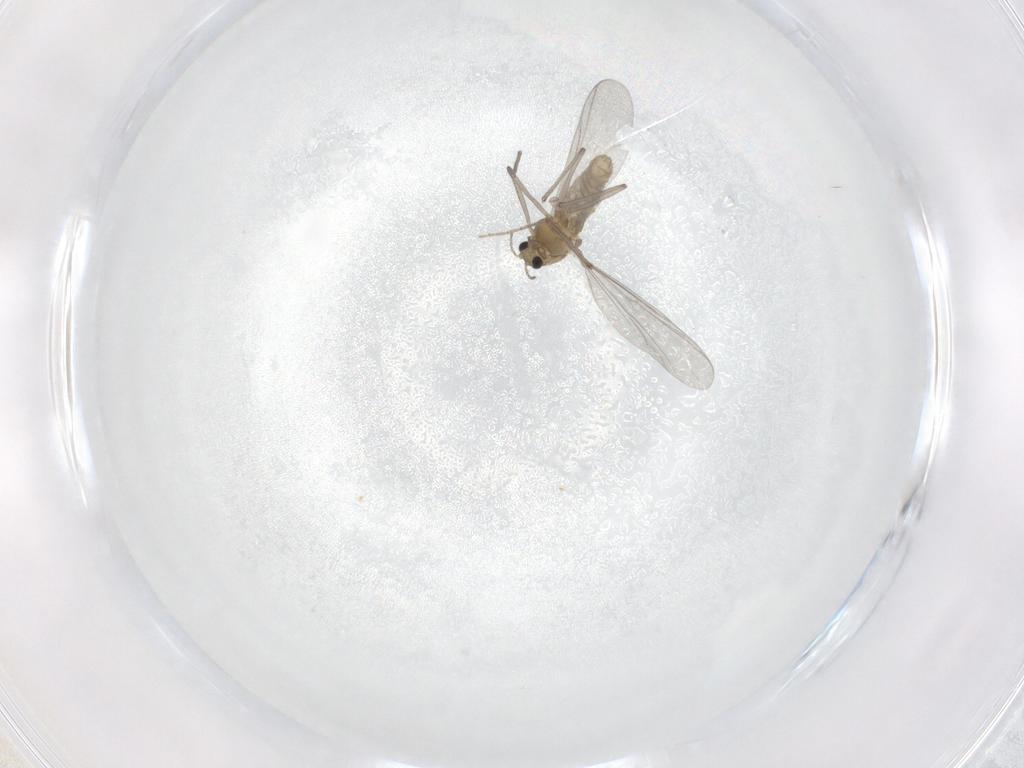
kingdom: Animalia
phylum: Arthropoda
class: Insecta
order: Diptera
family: Chironomidae
